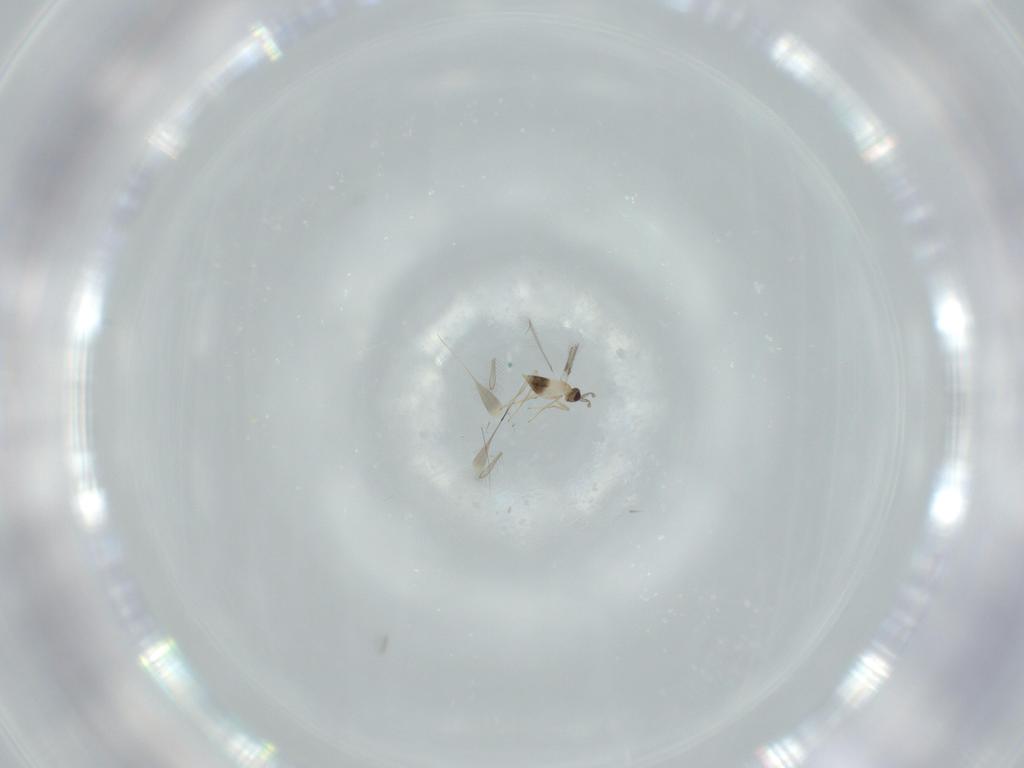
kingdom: Animalia
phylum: Arthropoda
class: Insecta
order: Hymenoptera
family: Mymaridae
